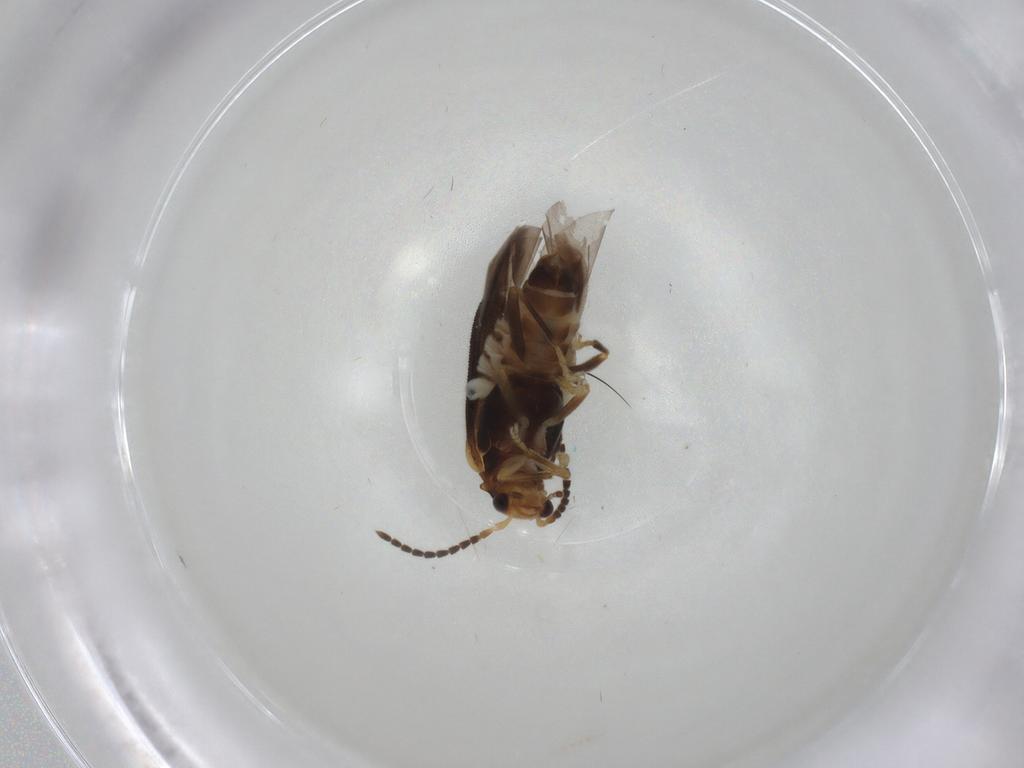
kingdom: Animalia
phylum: Arthropoda
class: Insecta
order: Coleoptera
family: Cantharidae
